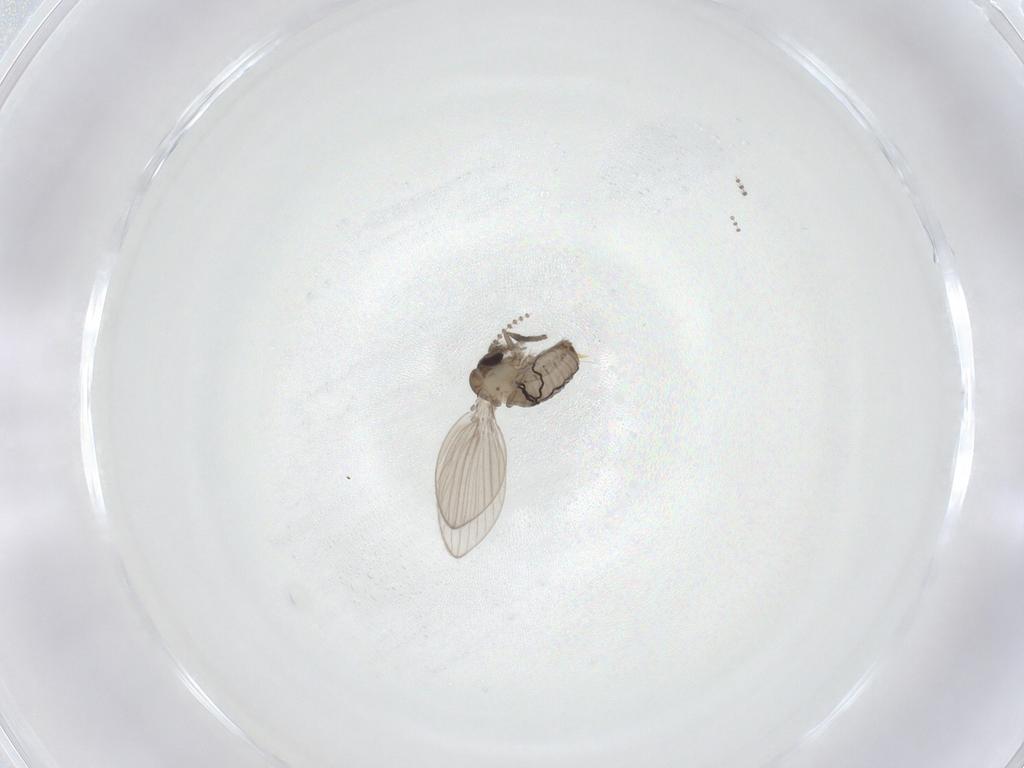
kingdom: Animalia
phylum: Arthropoda
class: Insecta
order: Diptera
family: Psychodidae
